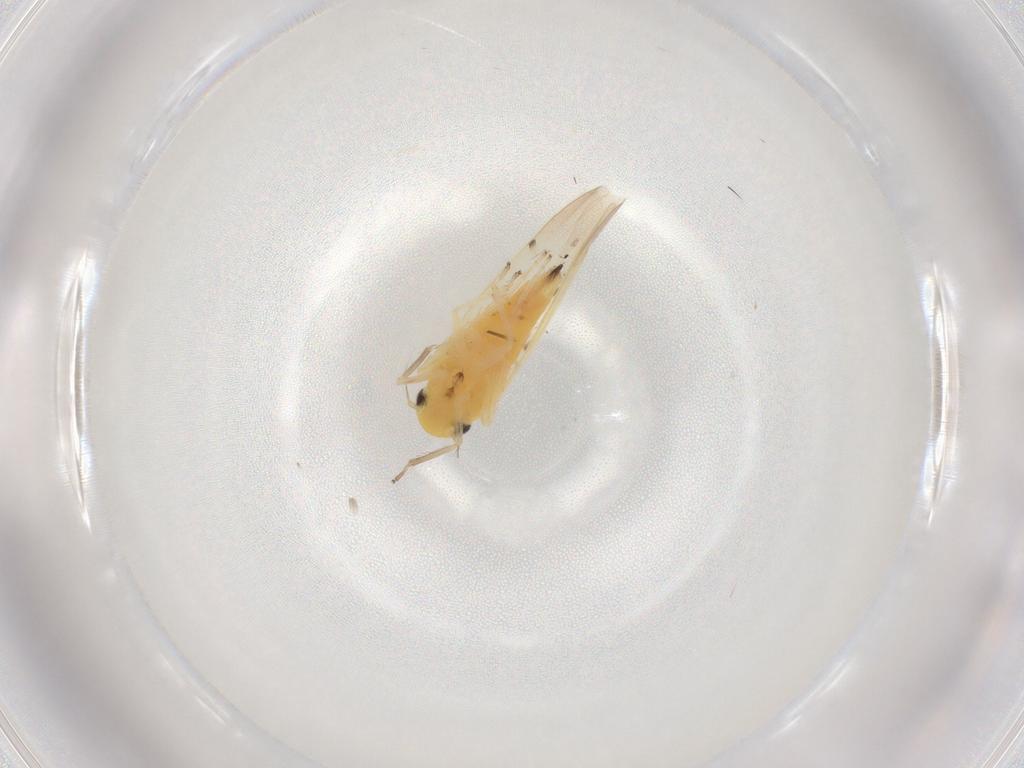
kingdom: Animalia
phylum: Arthropoda
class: Insecta
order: Hemiptera
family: Cicadellidae
